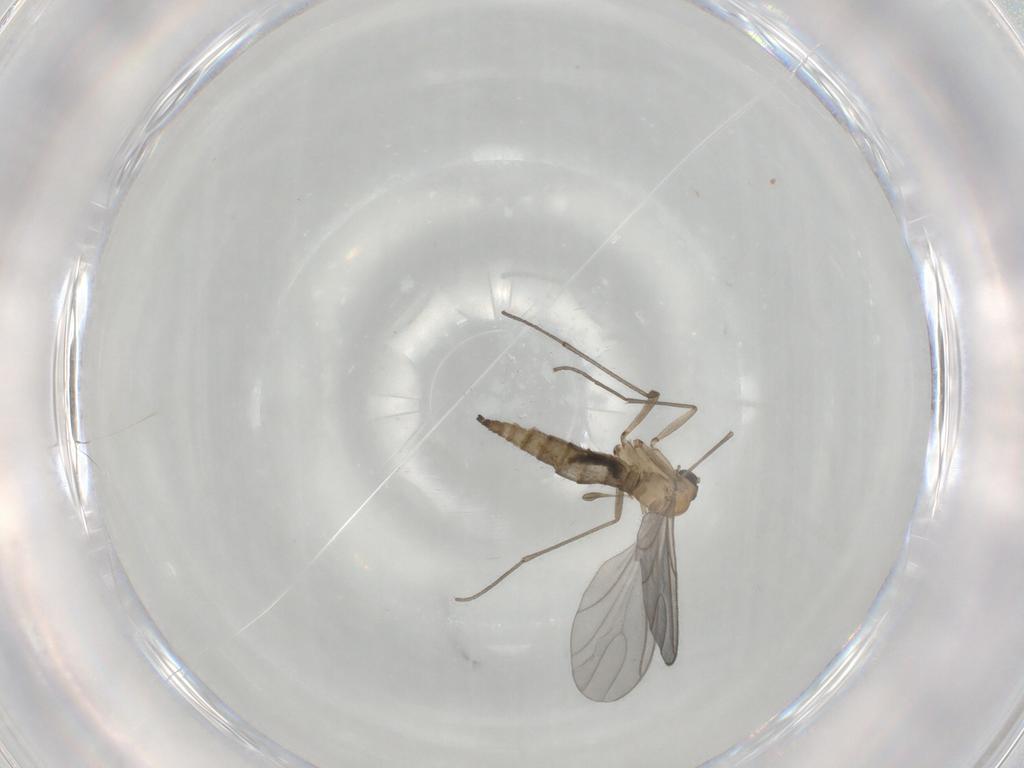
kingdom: Animalia
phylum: Arthropoda
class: Insecta
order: Diptera
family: Sciaridae
